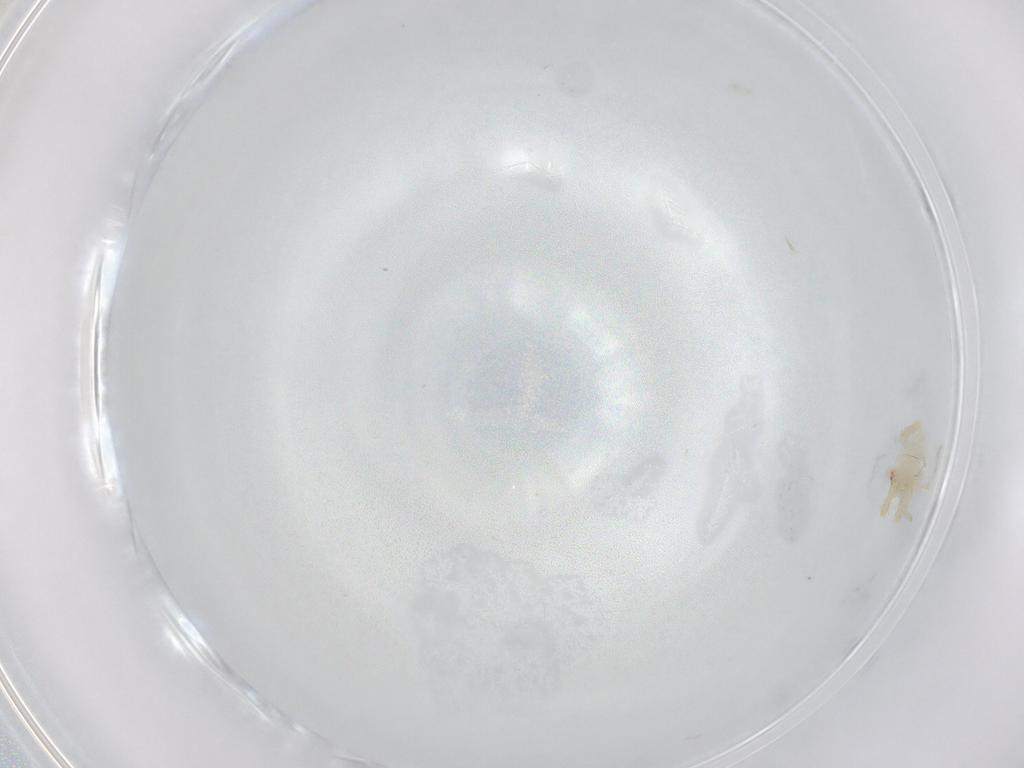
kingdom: Animalia
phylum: Arthropoda
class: Arachnida
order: Araneae
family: Theridiidae
